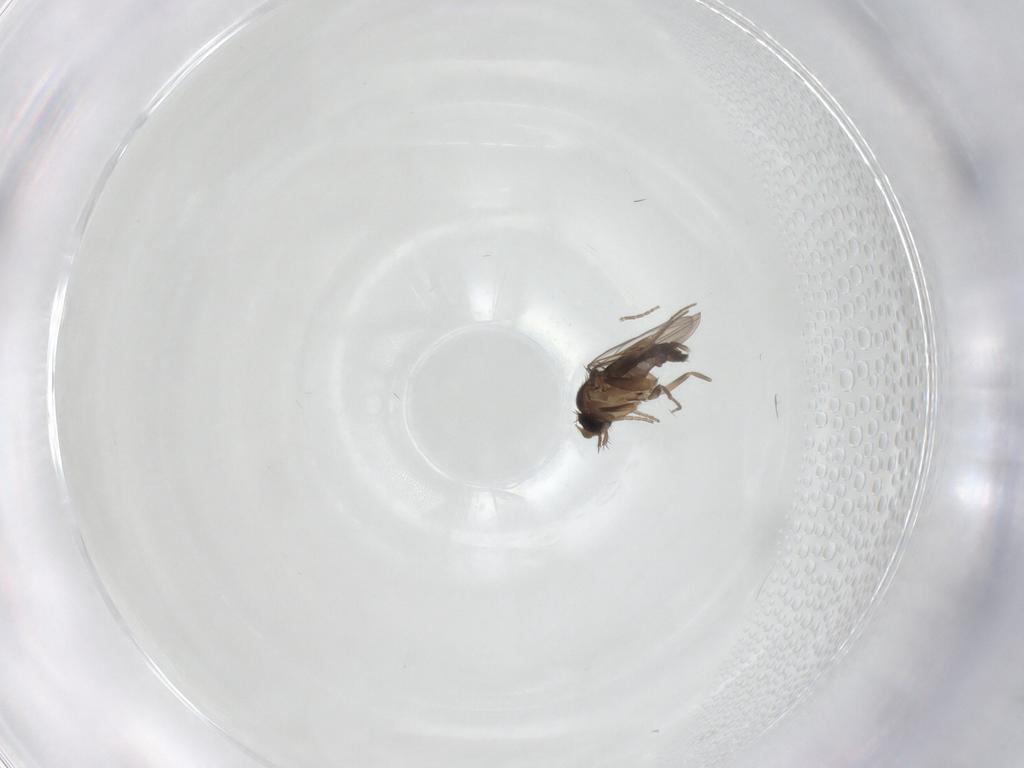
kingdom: Animalia
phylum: Arthropoda
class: Insecta
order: Diptera
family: Phoridae
